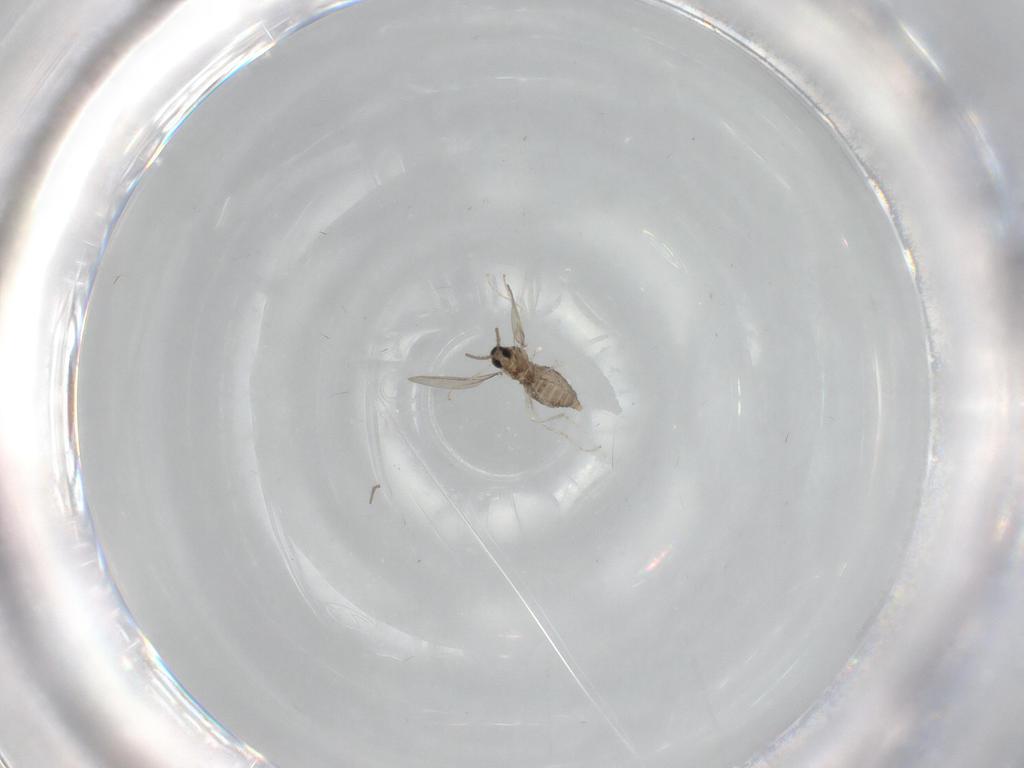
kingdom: Animalia
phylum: Arthropoda
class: Insecta
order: Diptera
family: Cecidomyiidae
